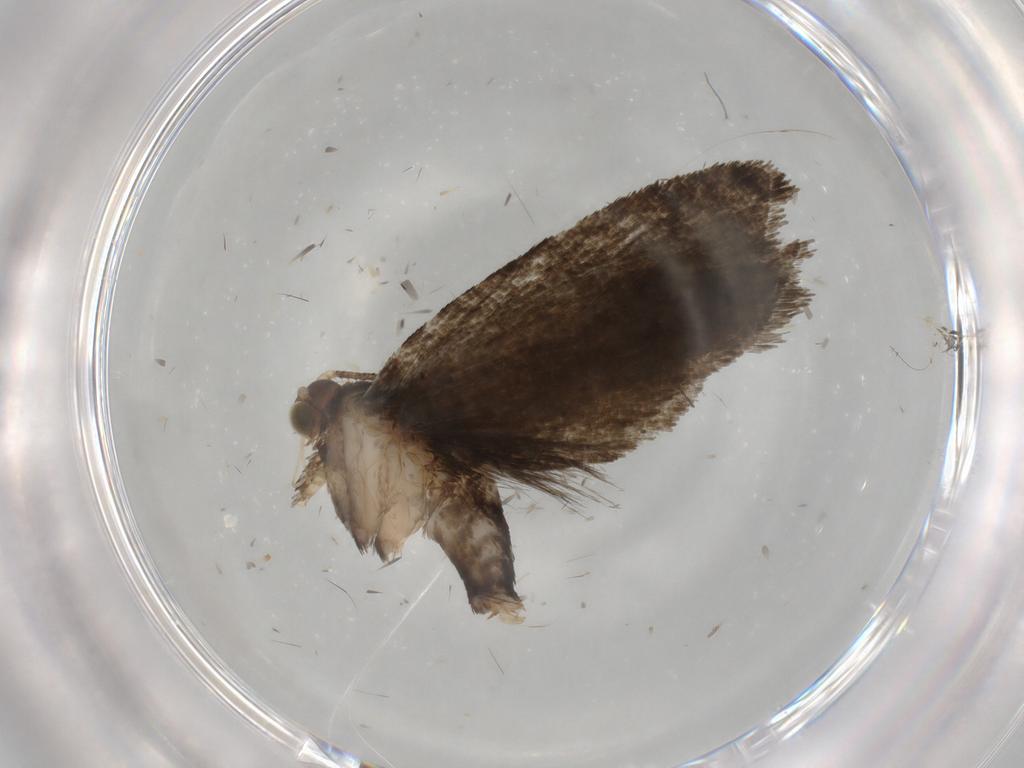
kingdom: Animalia
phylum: Arthropoda
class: Insecta
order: Lepidoptera
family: Tortricidae
